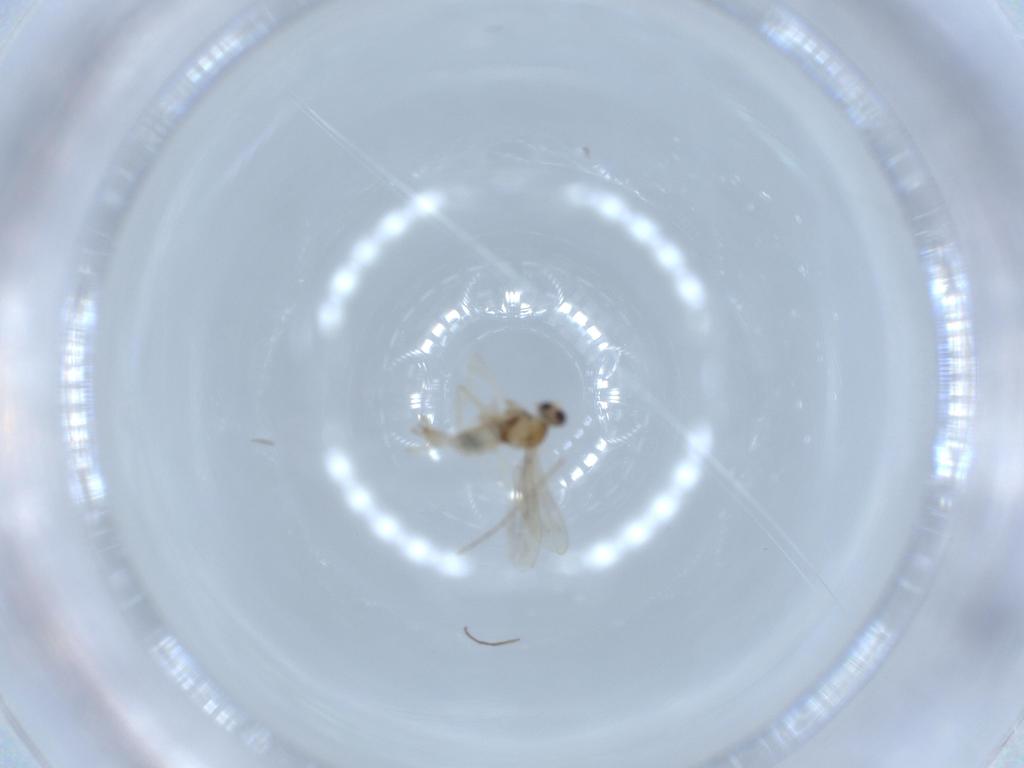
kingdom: Animalia
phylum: Arthropoda
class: Insecta
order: Diptera
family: Chironomidae
